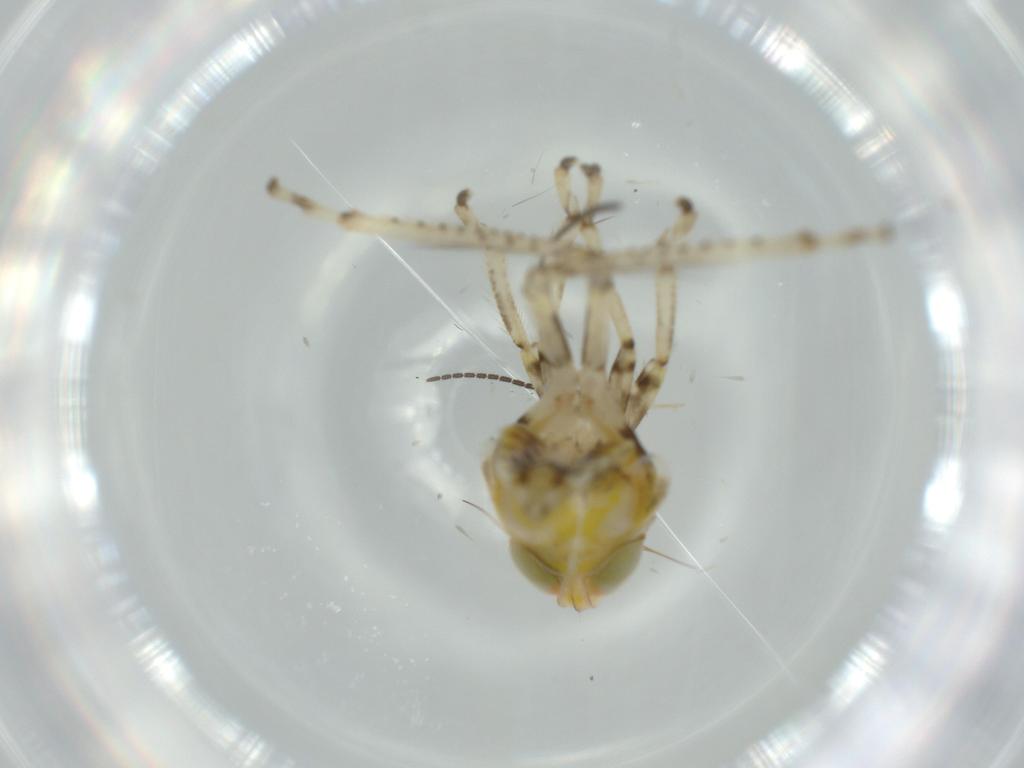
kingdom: Animalia
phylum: Arthropoda
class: Insecta
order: Hemiptera
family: Cicadellidae
